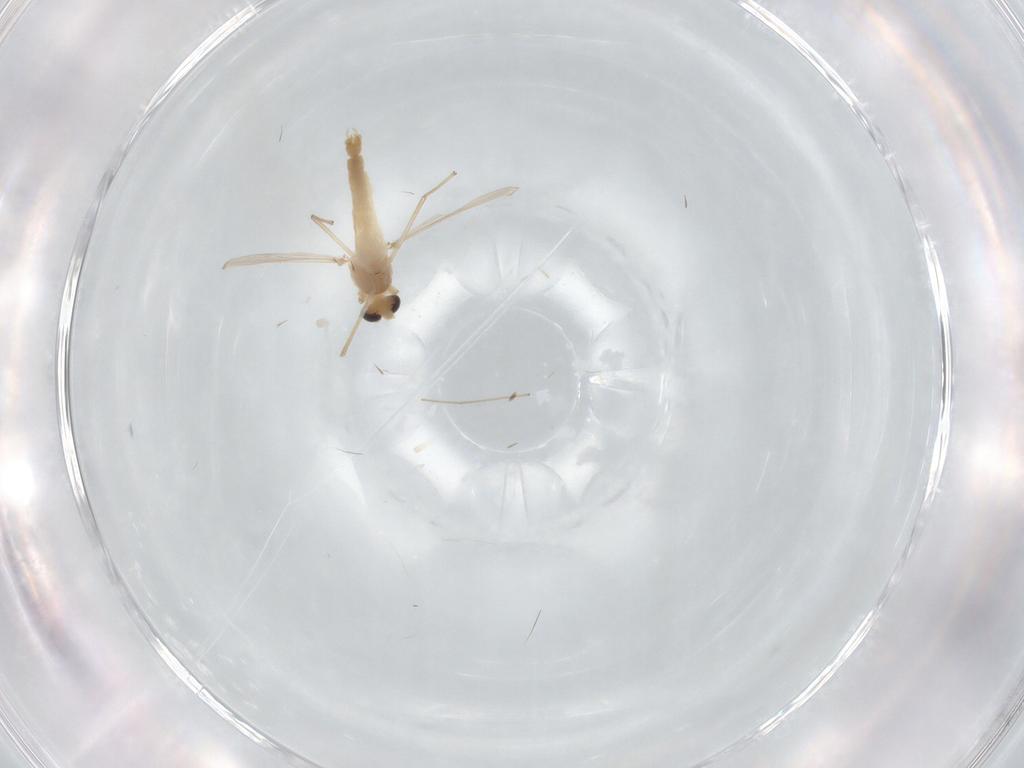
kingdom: Animalia
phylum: Arthropoda
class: Insecta
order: Diptera
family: Chironomidae
